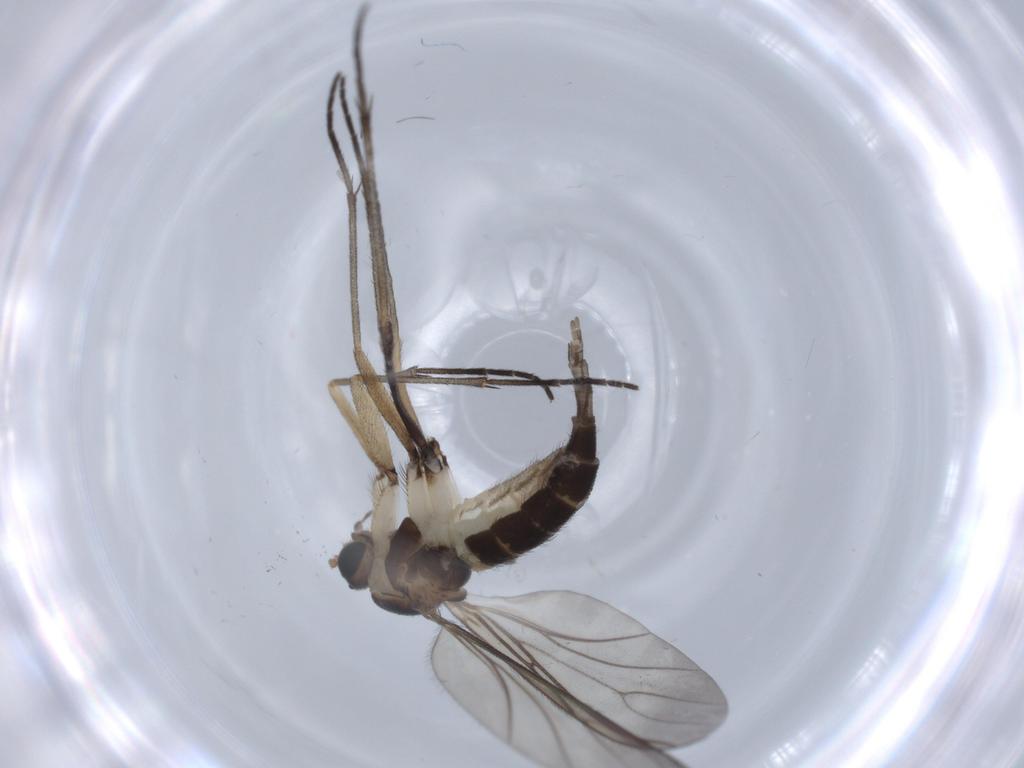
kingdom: Animalia
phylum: Arthropoda
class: Insecta
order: Diptera
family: Sciaridae
